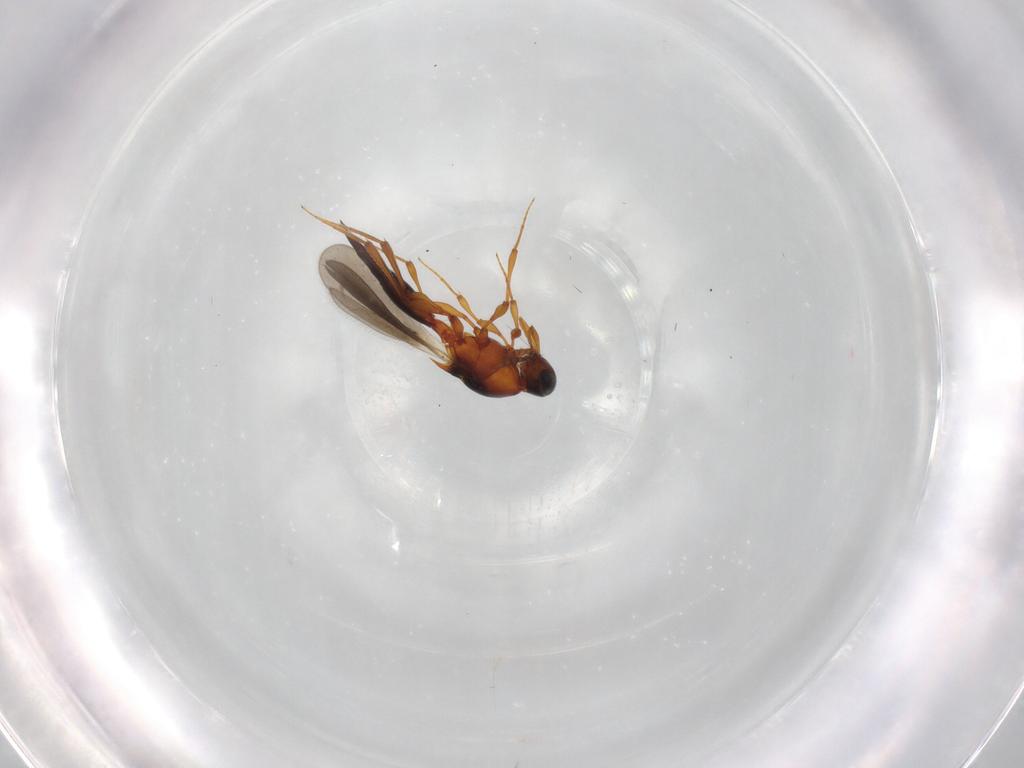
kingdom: Animalia
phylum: Arthropoda
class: Insecta
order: Hymenoptera
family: Platygastridae
